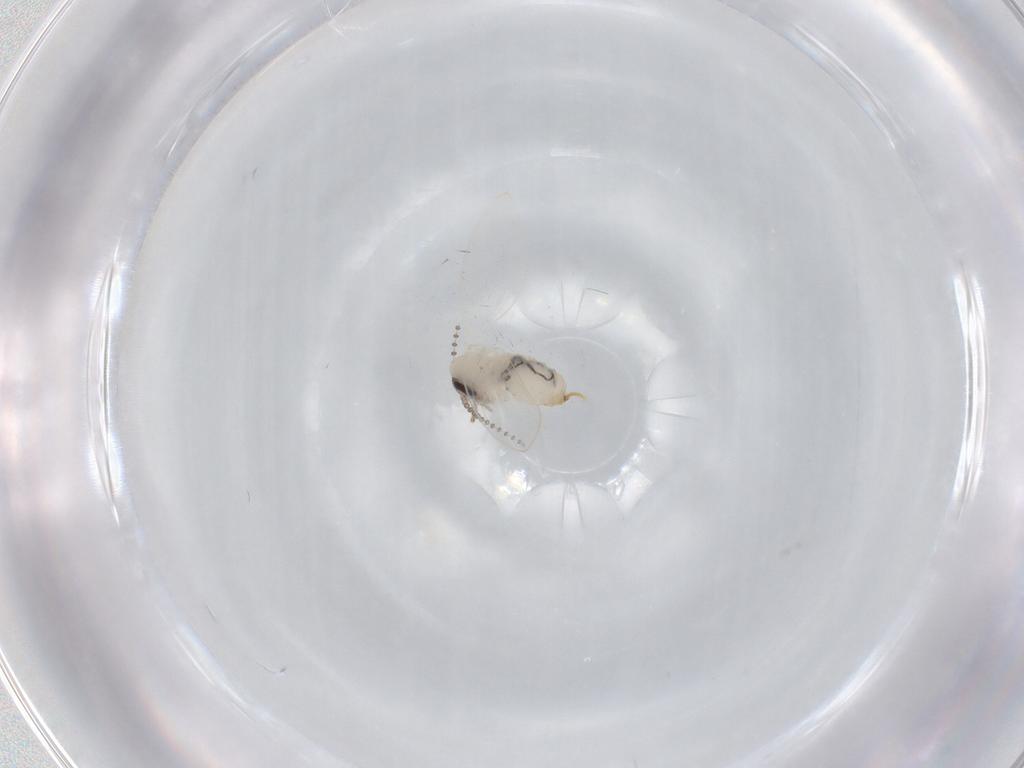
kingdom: Animalia
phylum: Arthropoda
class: Insecta
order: Diptera
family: Psychodidae
